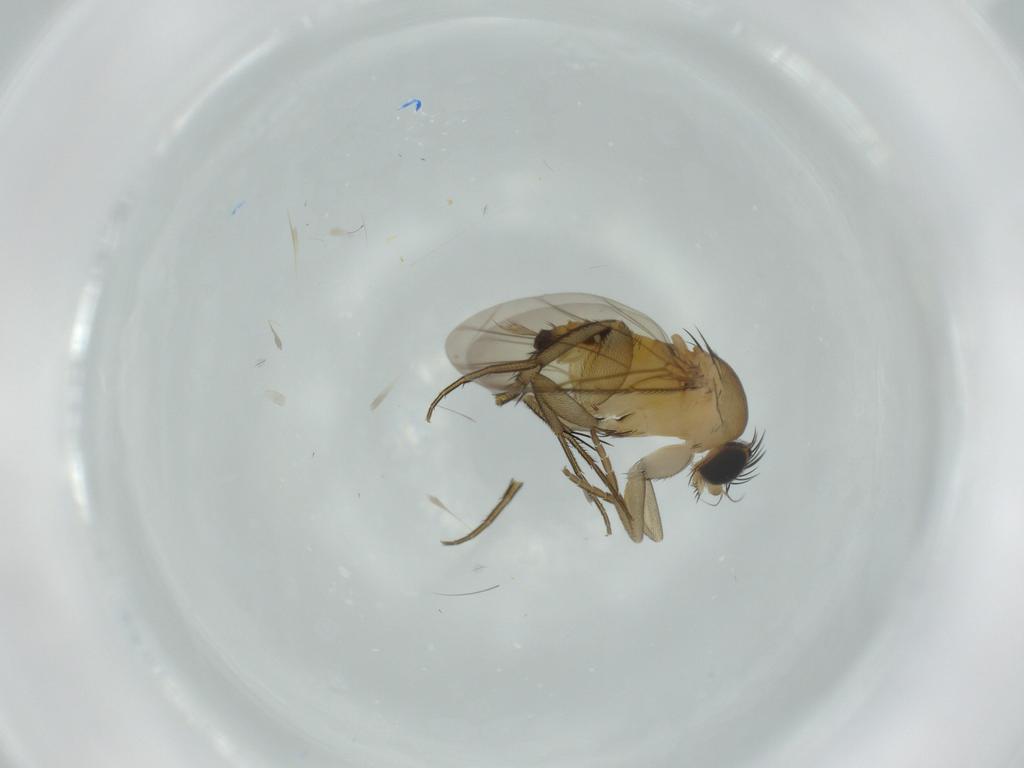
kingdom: Animalia
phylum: Arthropoda
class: Insecta
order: Diptera
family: Phoridae
